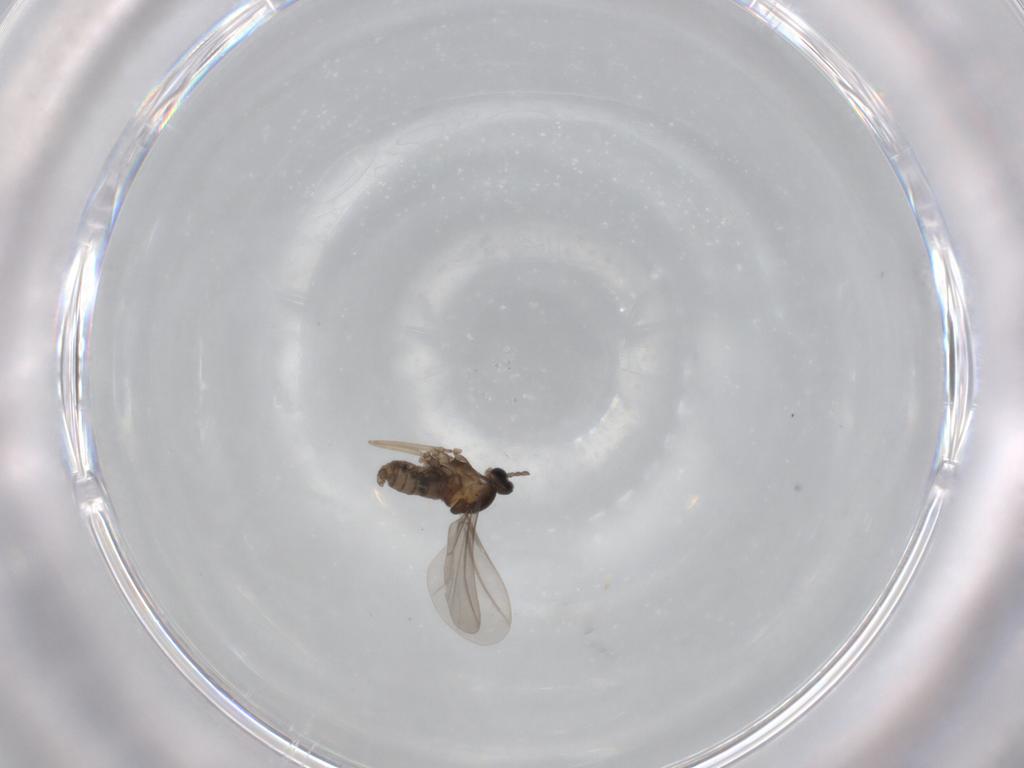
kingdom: Animalia
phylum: Arthropoda
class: Insecta
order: Diptera
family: Cecidomyiidae
